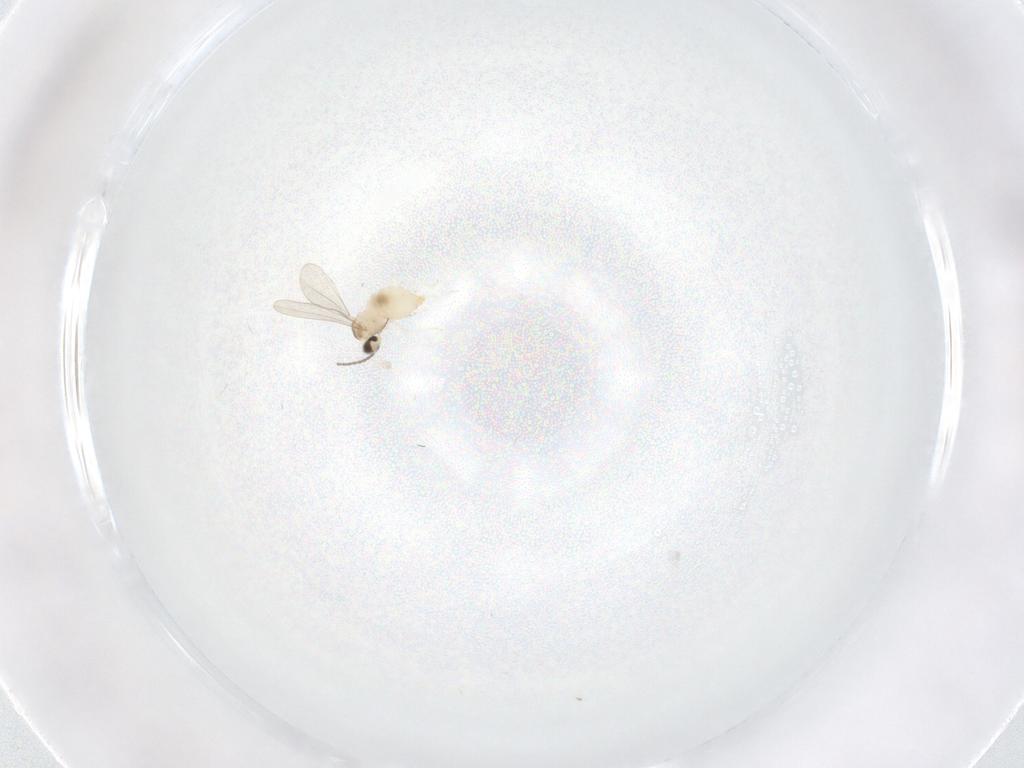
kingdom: Animalia
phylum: Arthropoda
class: Insecta
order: Diptera
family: Cecidomyiidae
